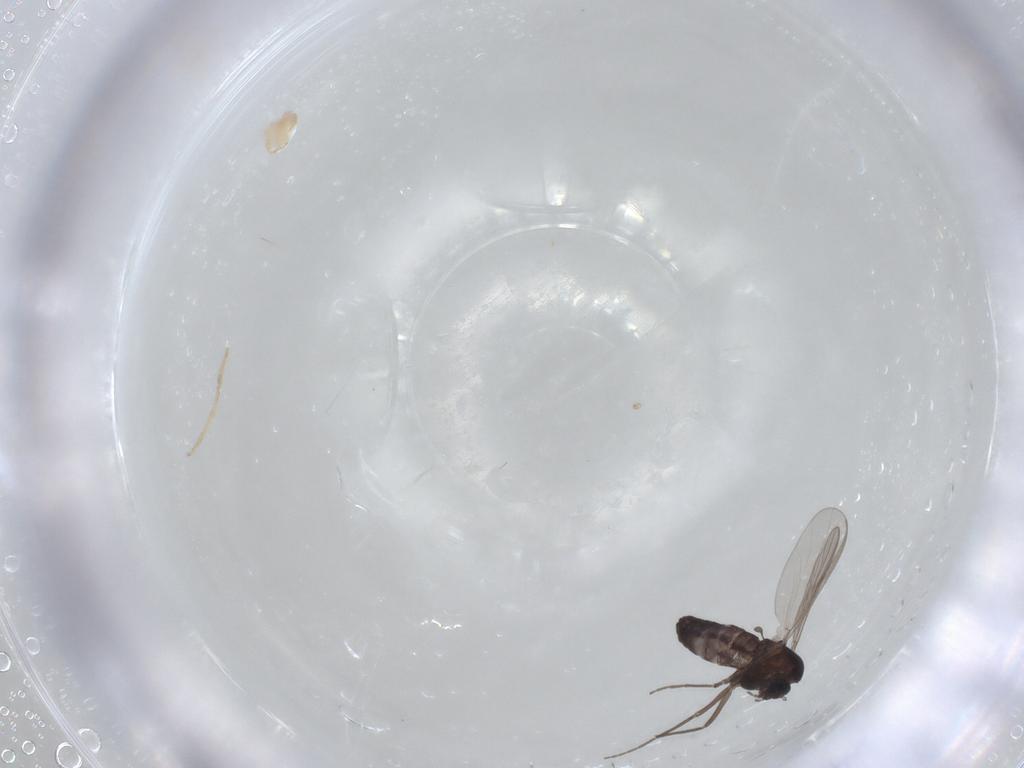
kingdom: Animalia
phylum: Arthropoda
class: Insecta
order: Diptera
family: Chironomidae
